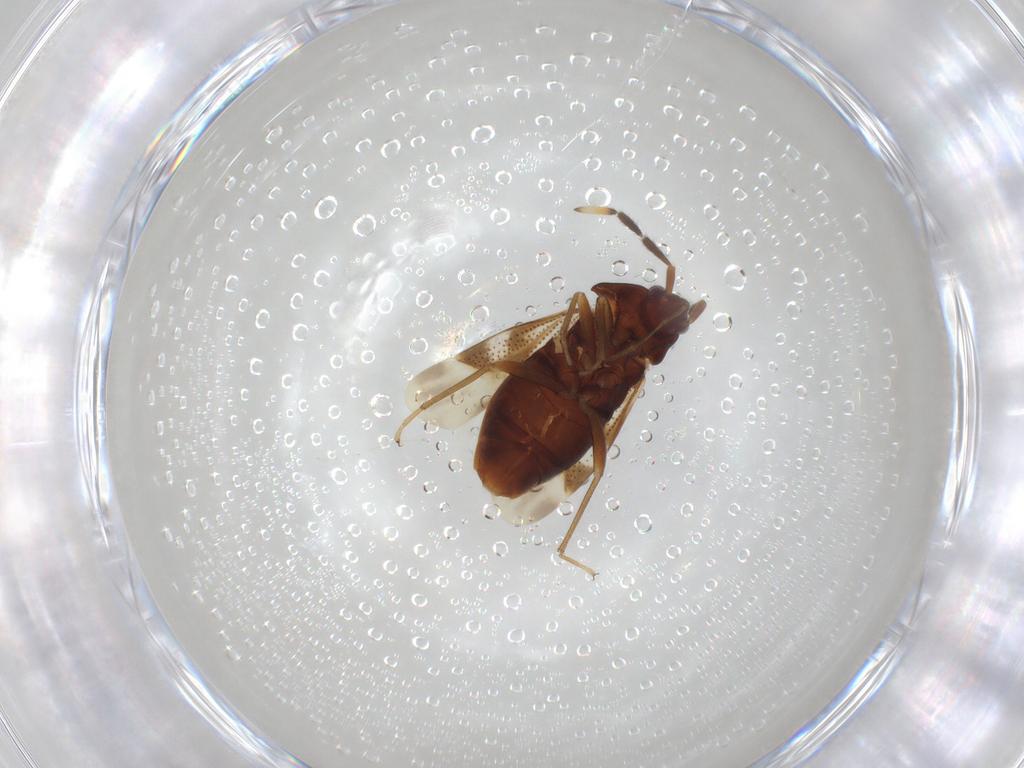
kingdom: Animalia
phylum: Arthropoda
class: Insecta
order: Hemiptera
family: Rhyparochromidae
